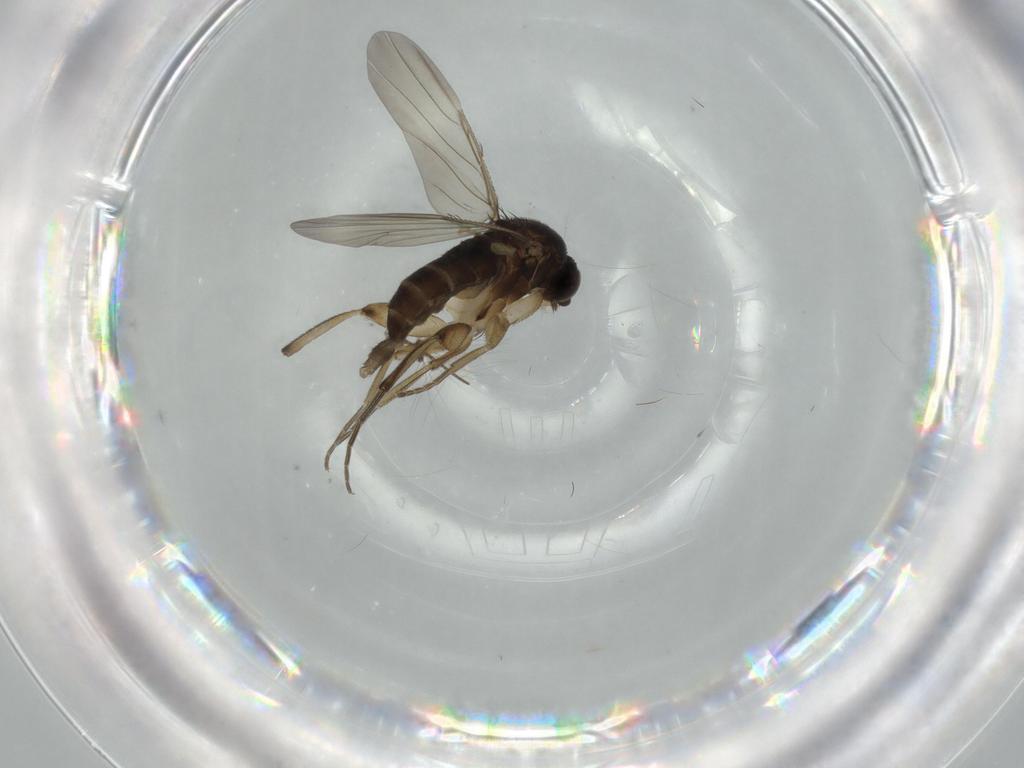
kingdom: Animalia
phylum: Arthropoda
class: Insecta
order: Diptera
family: Phoridae
